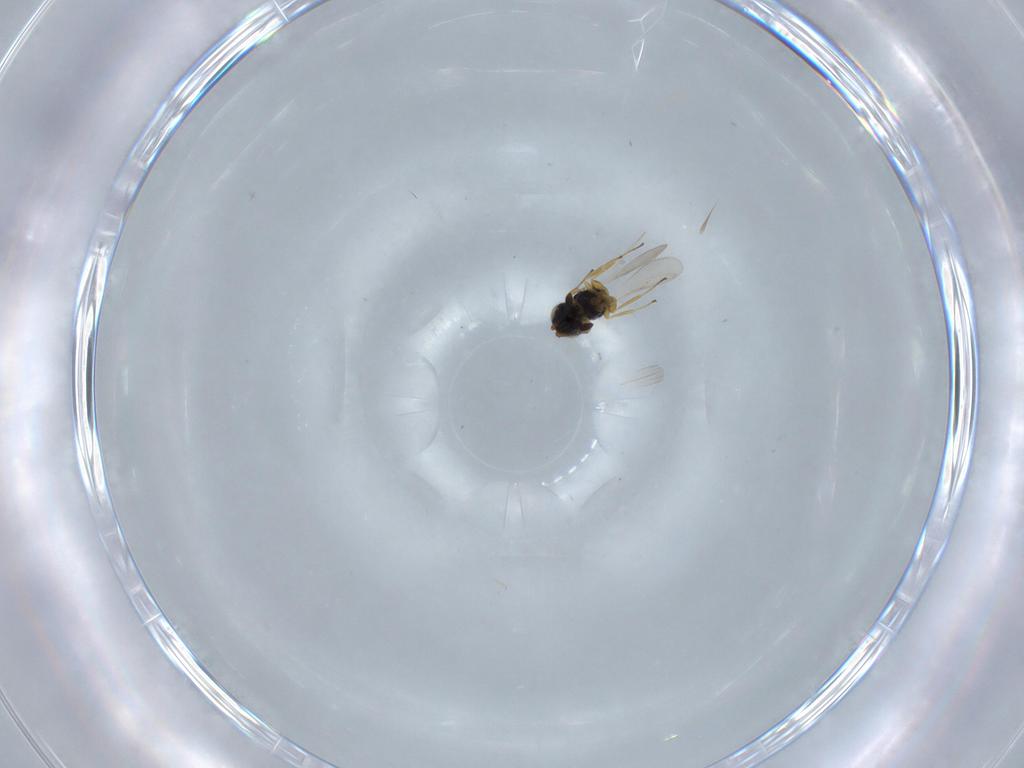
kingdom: Animalia
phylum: Arthropoda
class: Insecta
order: Hymenoptera
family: Scelionidae
